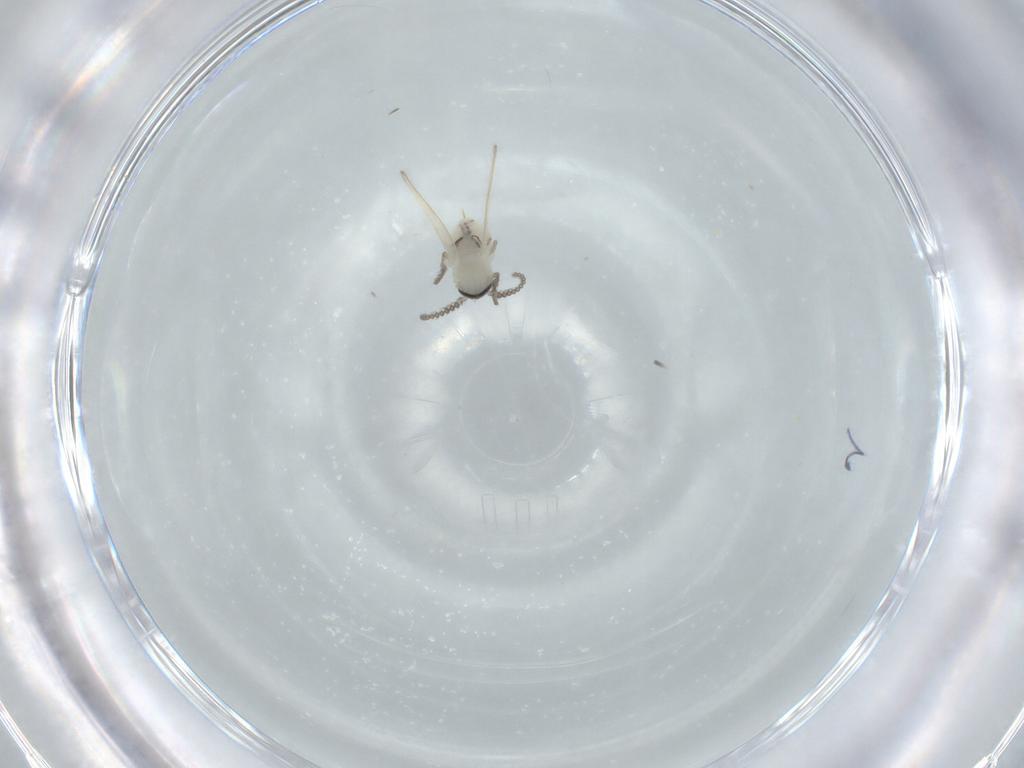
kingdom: Animalia
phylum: Arthropoda
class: Insecta
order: Diptera
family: Psychodidae
